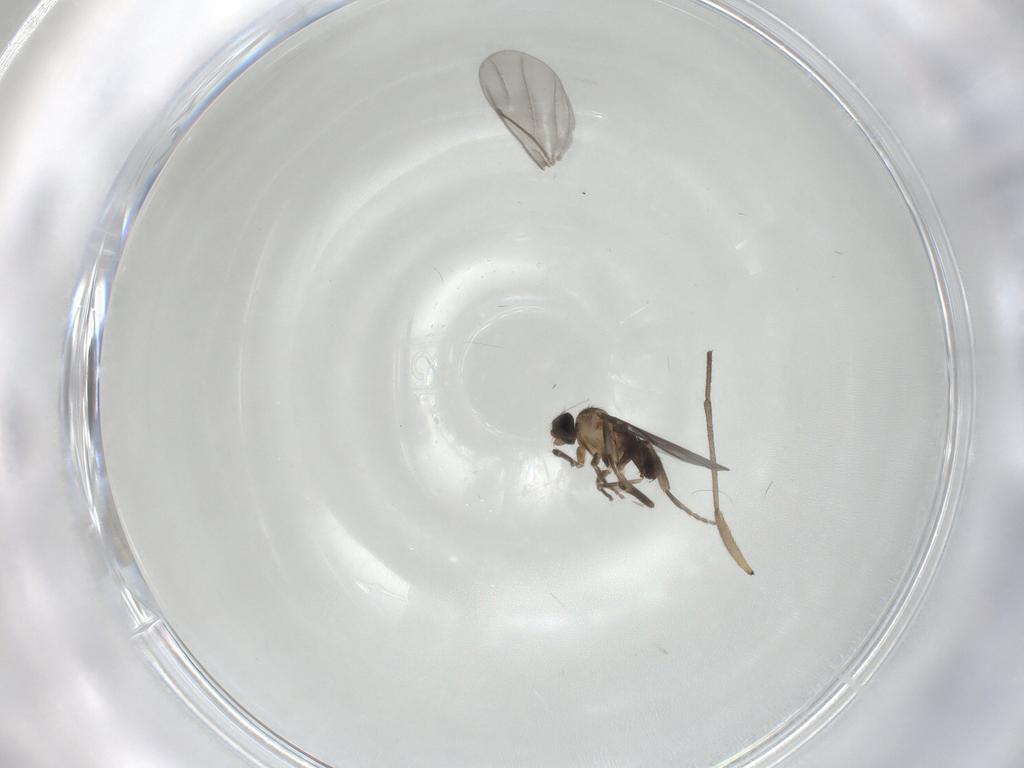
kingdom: Animalia
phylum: Arthropoda
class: Insecta
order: Diptera
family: Phoridae
